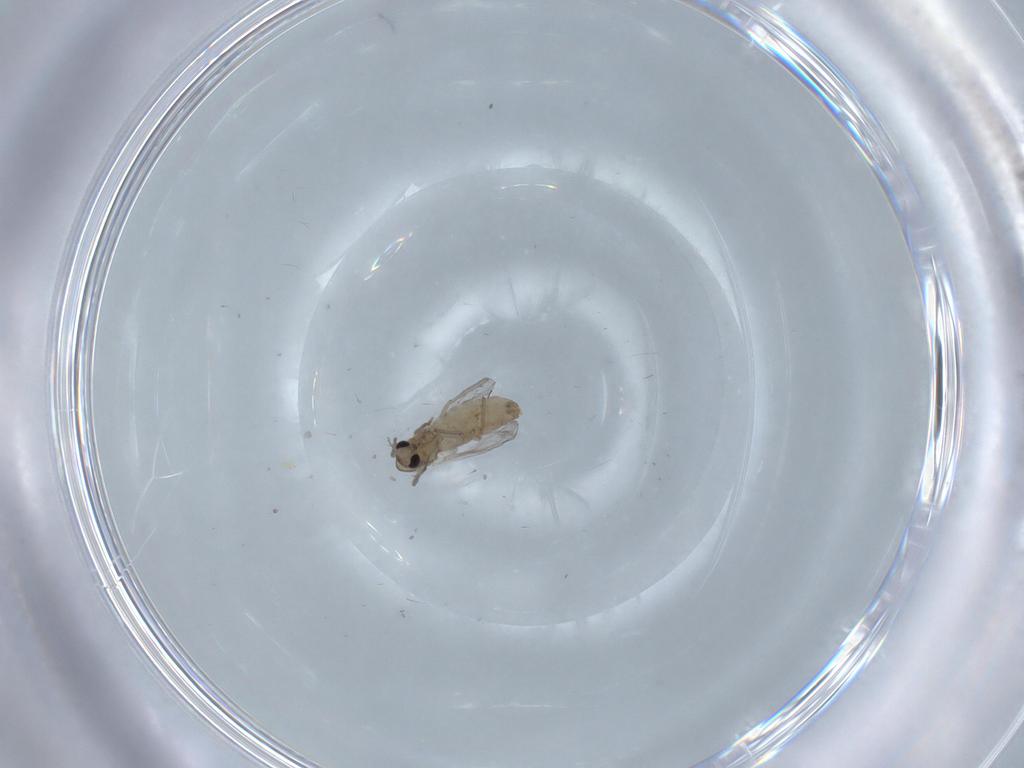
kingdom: Animalia
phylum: Arthropoda
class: Insecta
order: Diptera
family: Chironomidae
